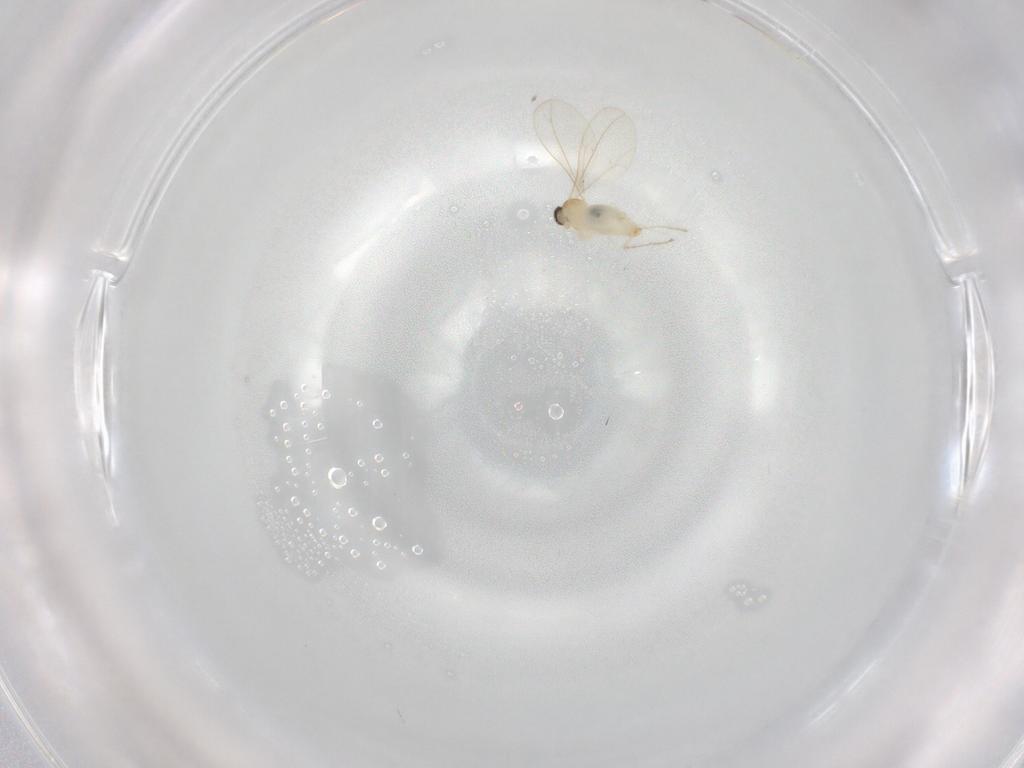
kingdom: Animalia
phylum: Arthropoda
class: Insecta
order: Diptera
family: Cecidomyiidae
